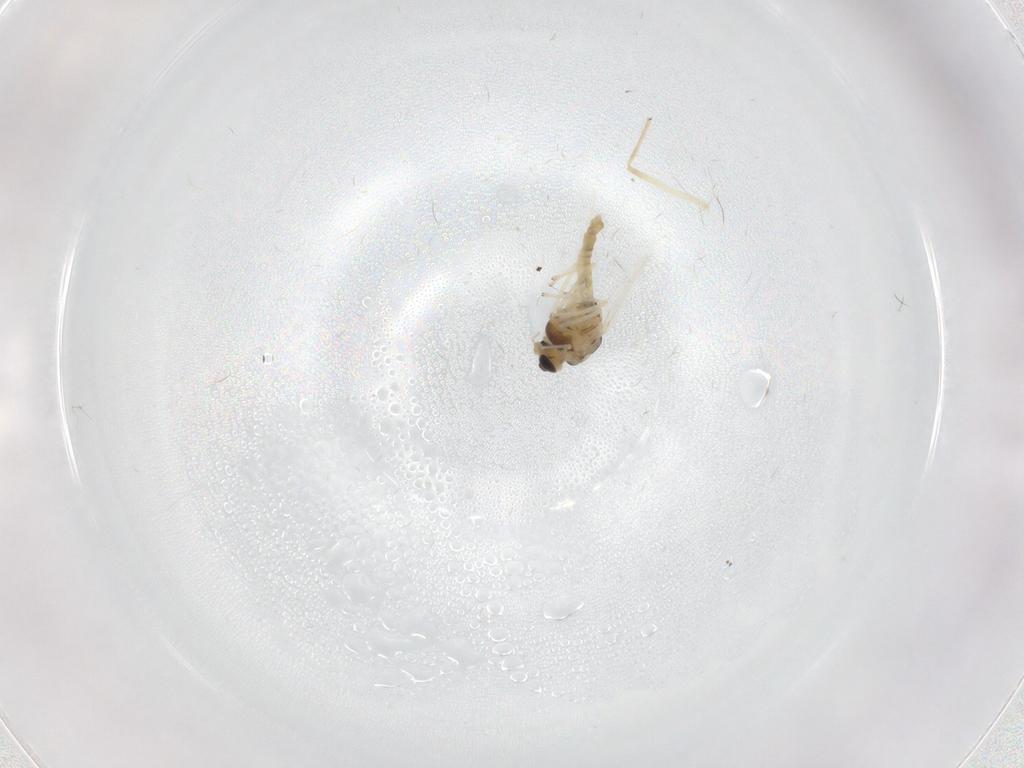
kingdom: Animalia
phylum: Arthropoda
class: Insecta
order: Diptera
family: Chironomidae
